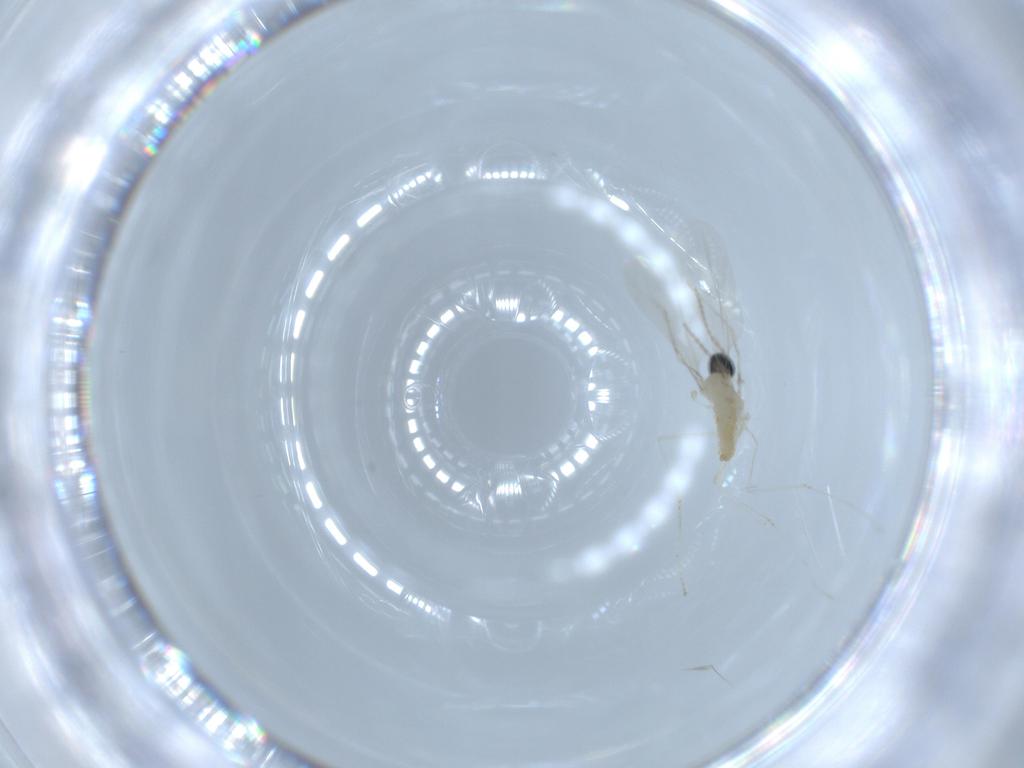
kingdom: Animalia
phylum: Arthropoda
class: Insecta
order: Diptera
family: Cecidomyiidae
